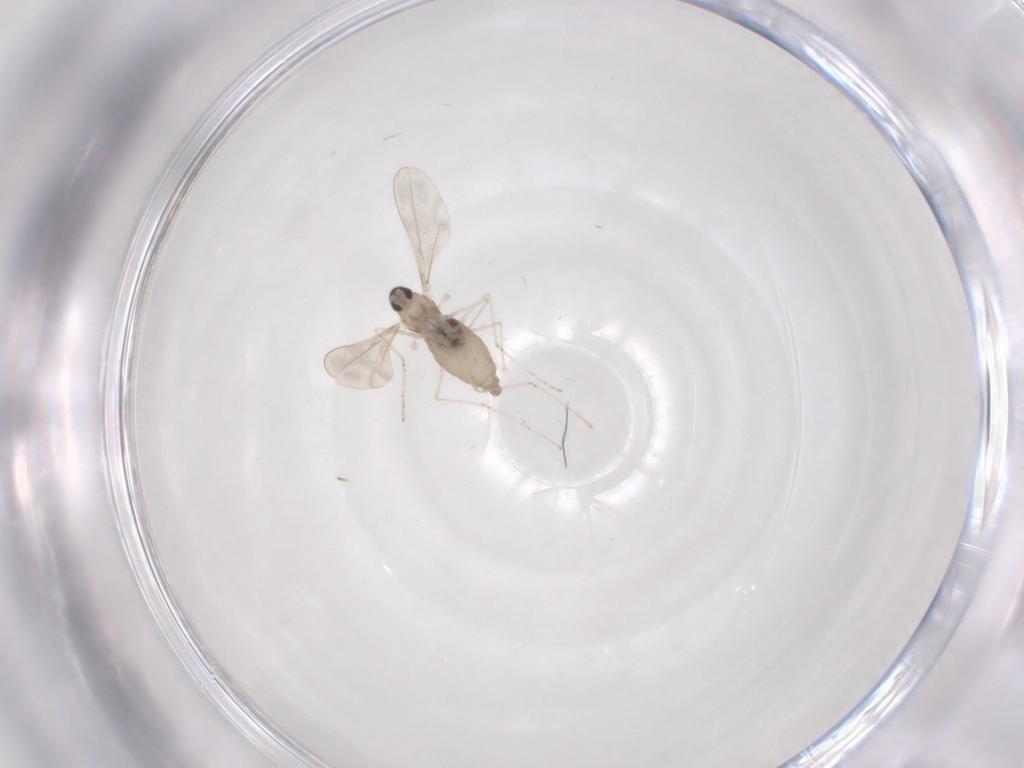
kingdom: Animalia
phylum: Arthropoda
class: Insecta
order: Diptera
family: Cecidomyiidae
